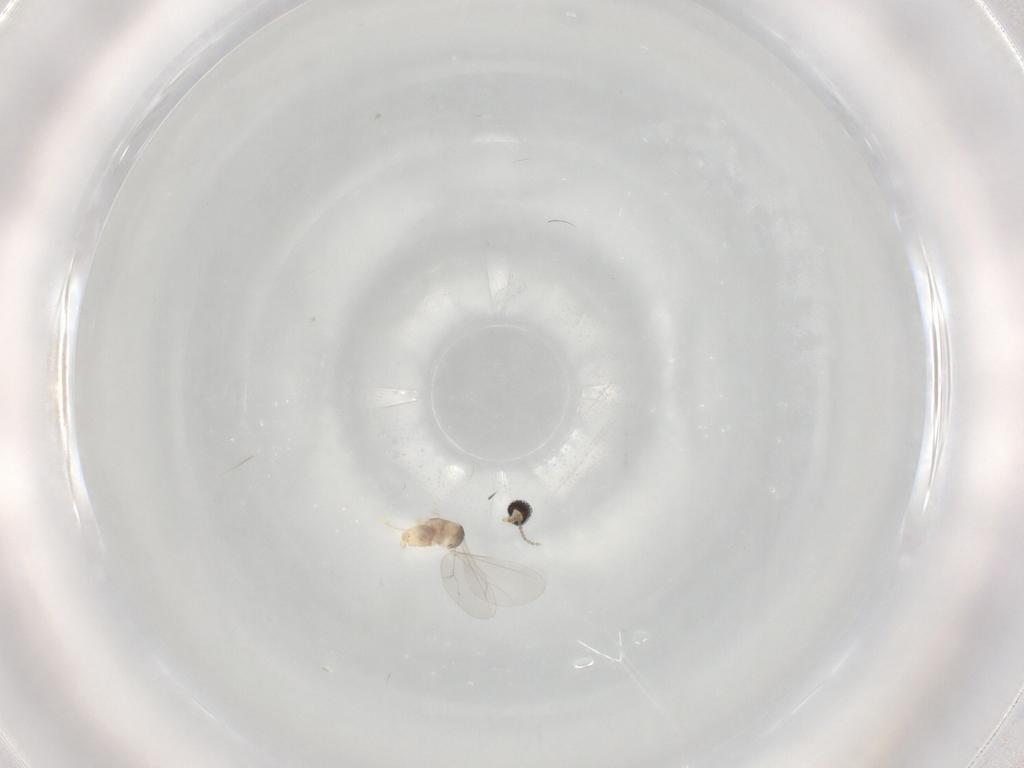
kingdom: Animalia
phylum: Arthropoda
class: Insecta
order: Diptera
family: Cecidomyiidae
